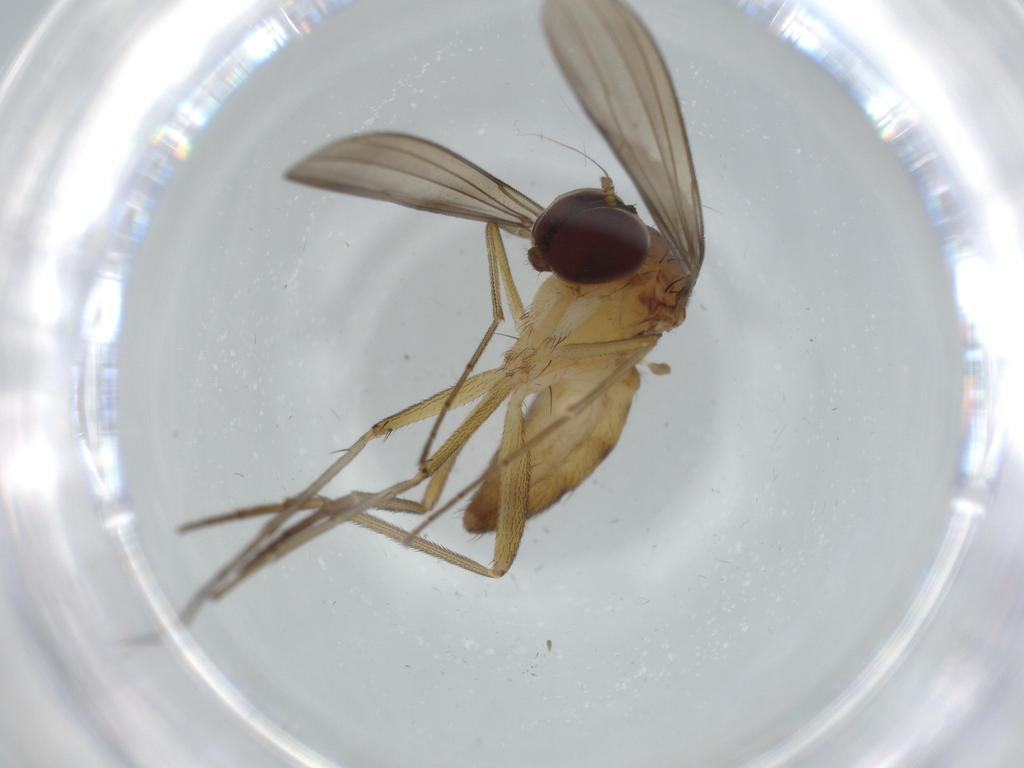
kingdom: Animalia
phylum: Arthropoda
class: Insecta
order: Diptera
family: Dolichopodidae
